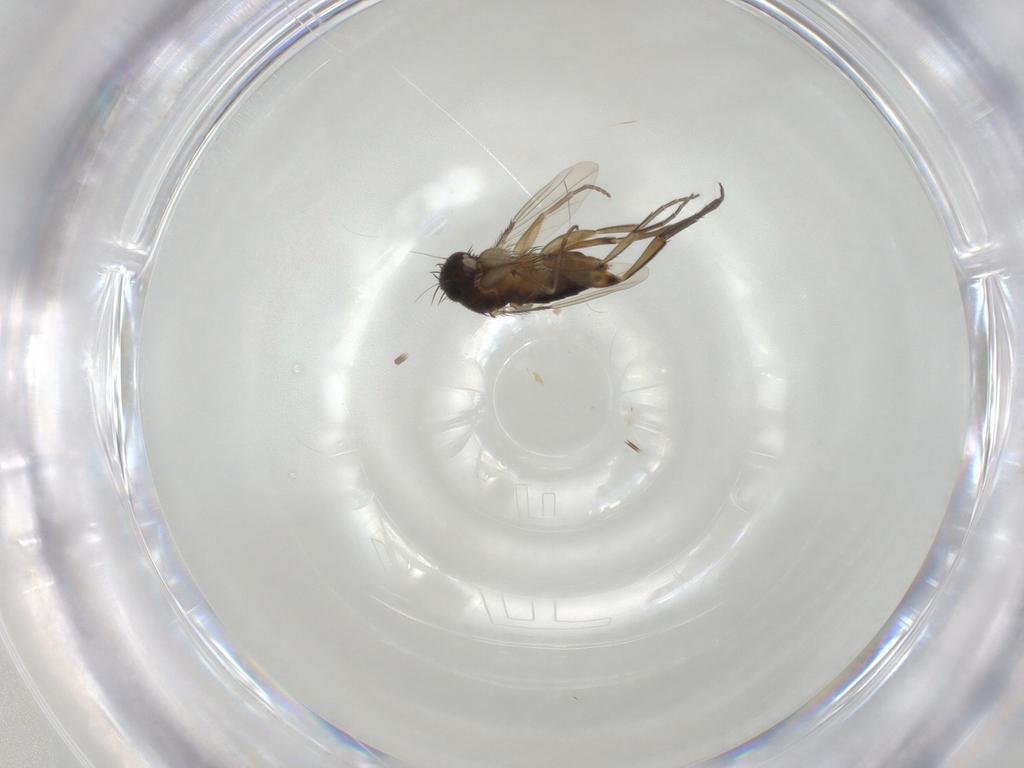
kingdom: Animalia
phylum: Arthropoda
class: Insecta
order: Diptera
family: Phoridae
